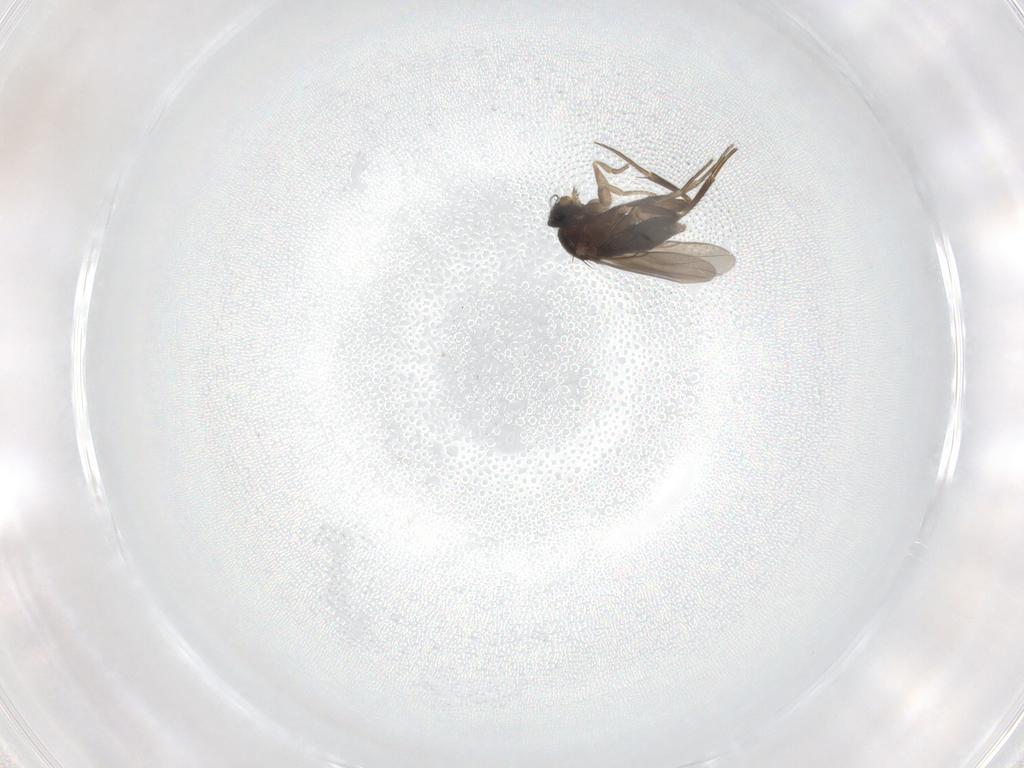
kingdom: Animalia
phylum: Arthropoda
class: Insecta
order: Diptera
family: Phoridae
